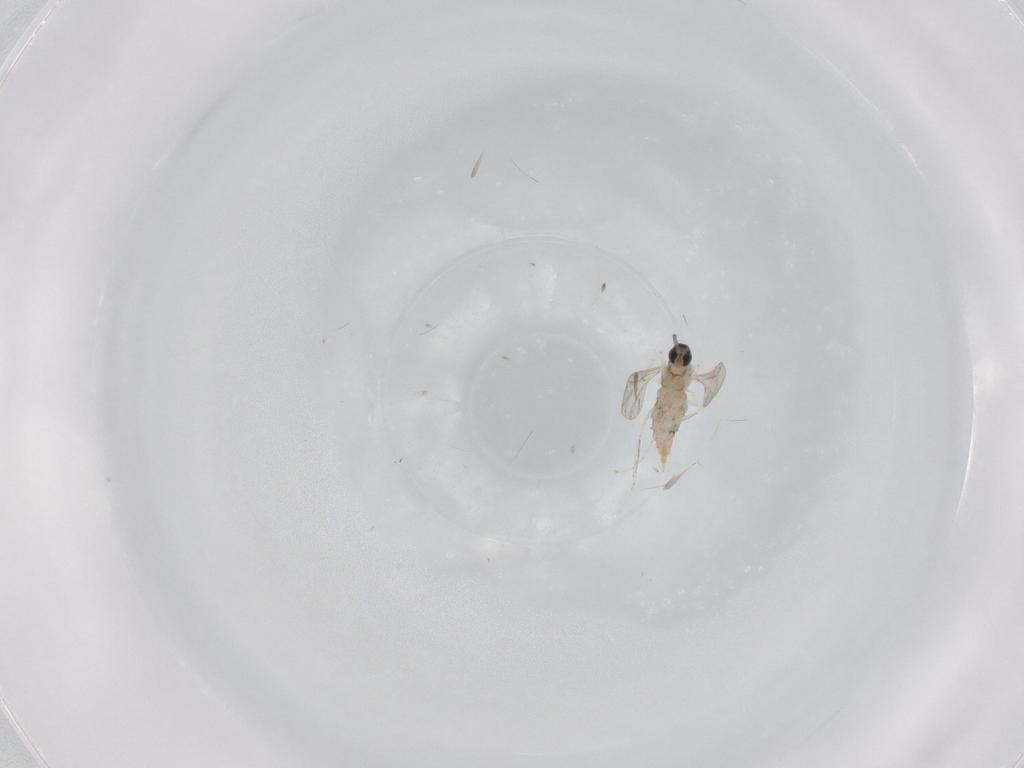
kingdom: Animalia
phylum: Arthropoda
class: Insecta
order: Diptera
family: Cecidomyiidae
